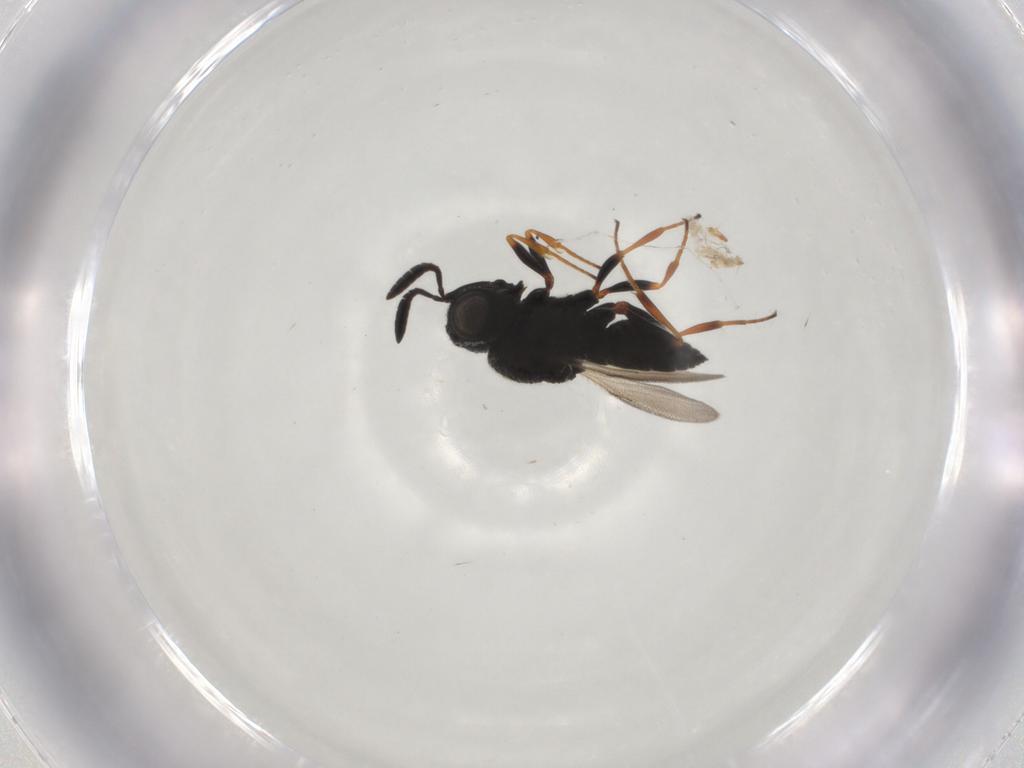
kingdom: Animalia
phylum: Arthropoda
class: Insecta
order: Hymenoptera
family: Scelionidae
